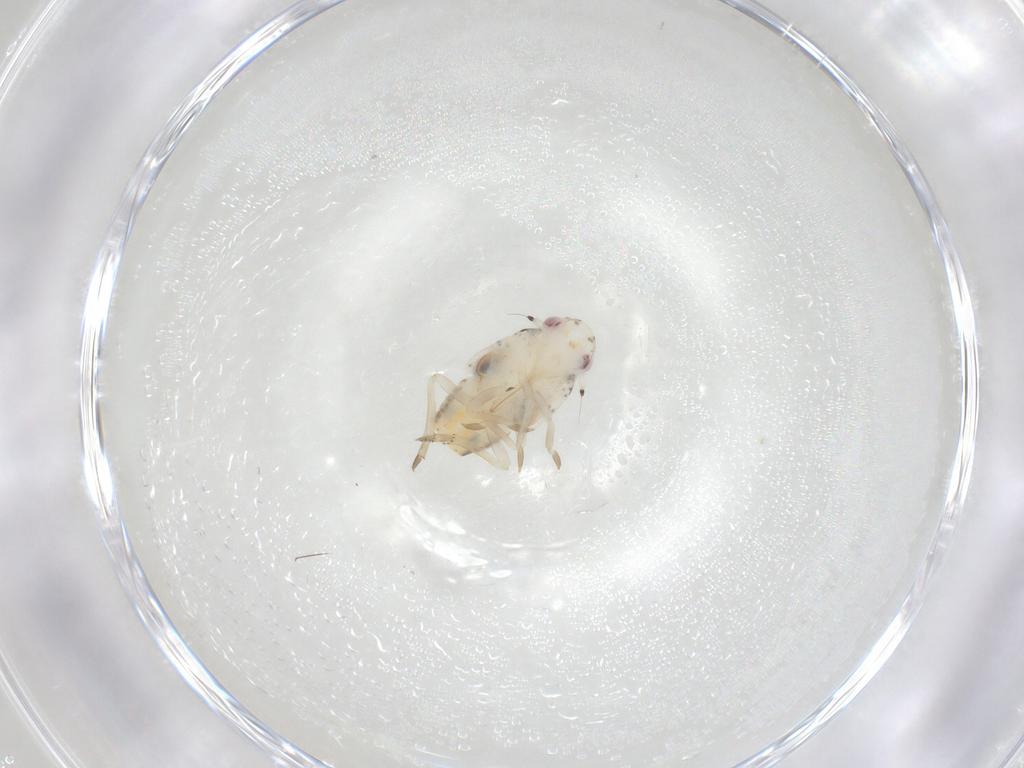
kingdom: Animalia
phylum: Arthropoda
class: Insecta
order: Hemiptera
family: Flatidae
